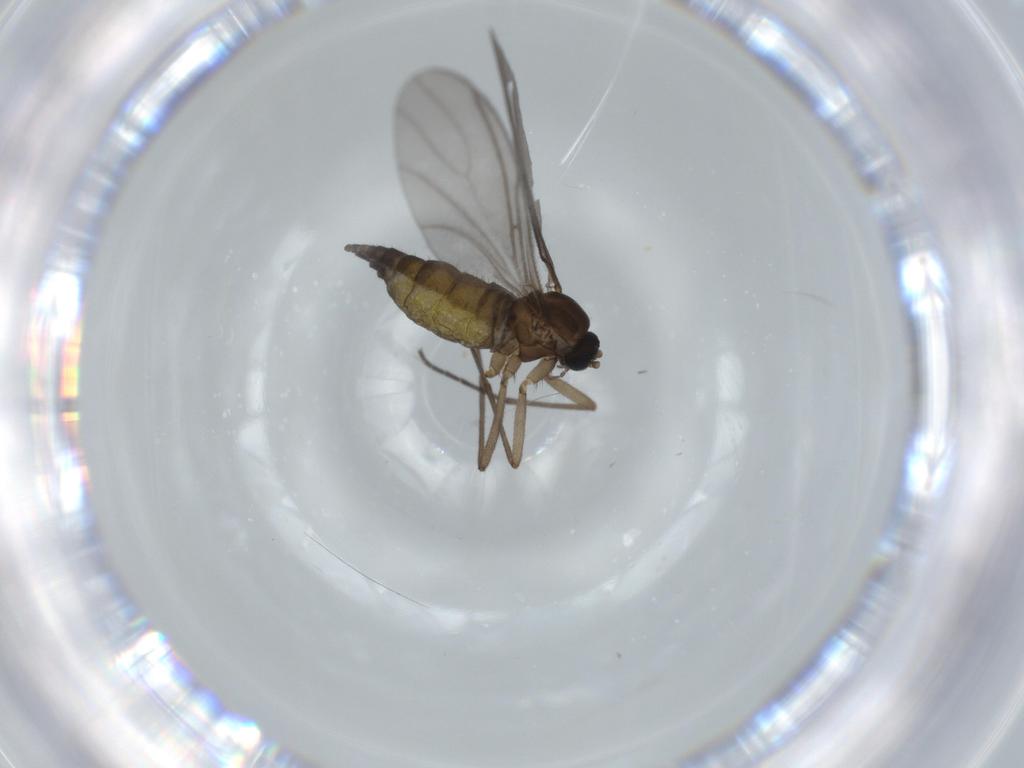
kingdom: Animalia
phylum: Arthropoda
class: Insecta
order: Diptera
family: Sciaridae
